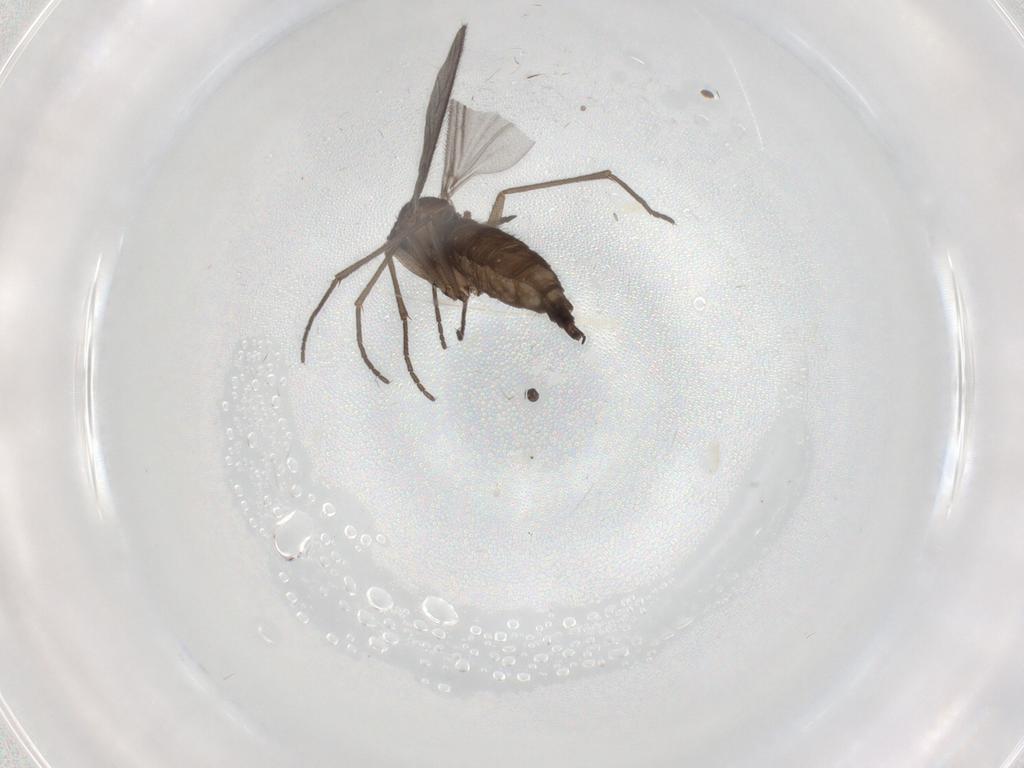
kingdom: Animalia
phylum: Arthropoda
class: Insecta
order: Diptera
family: Sciaridae
